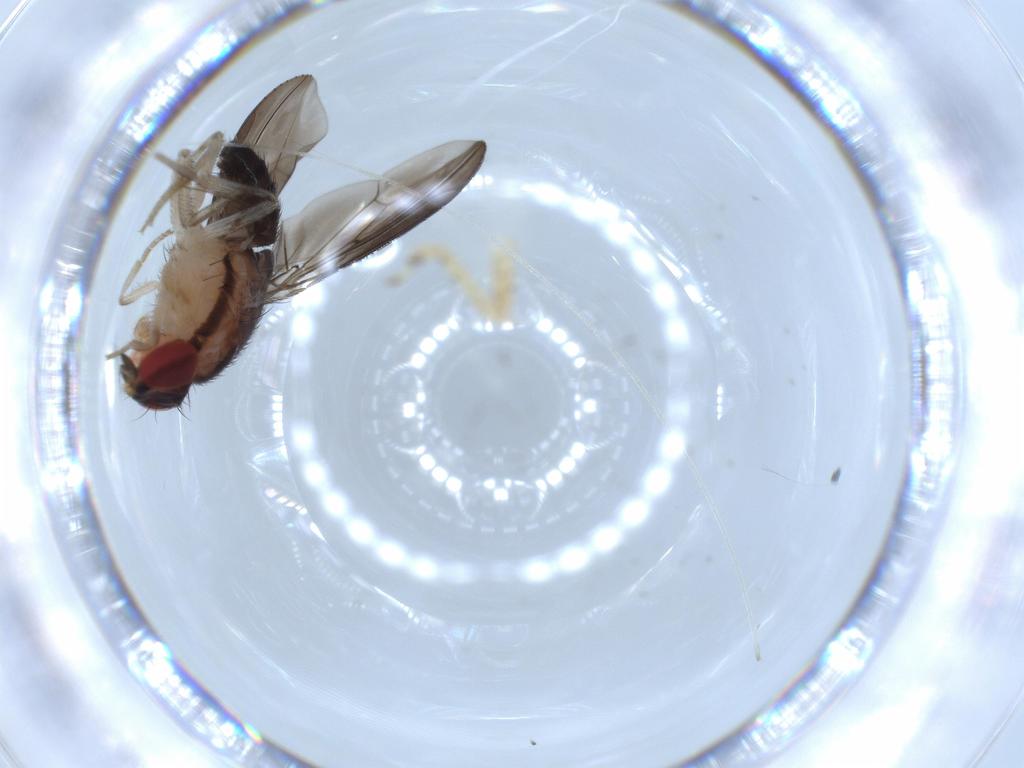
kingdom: Animalia
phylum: Arthropoda
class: Insecta
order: Diptera
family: Drosophilidae
